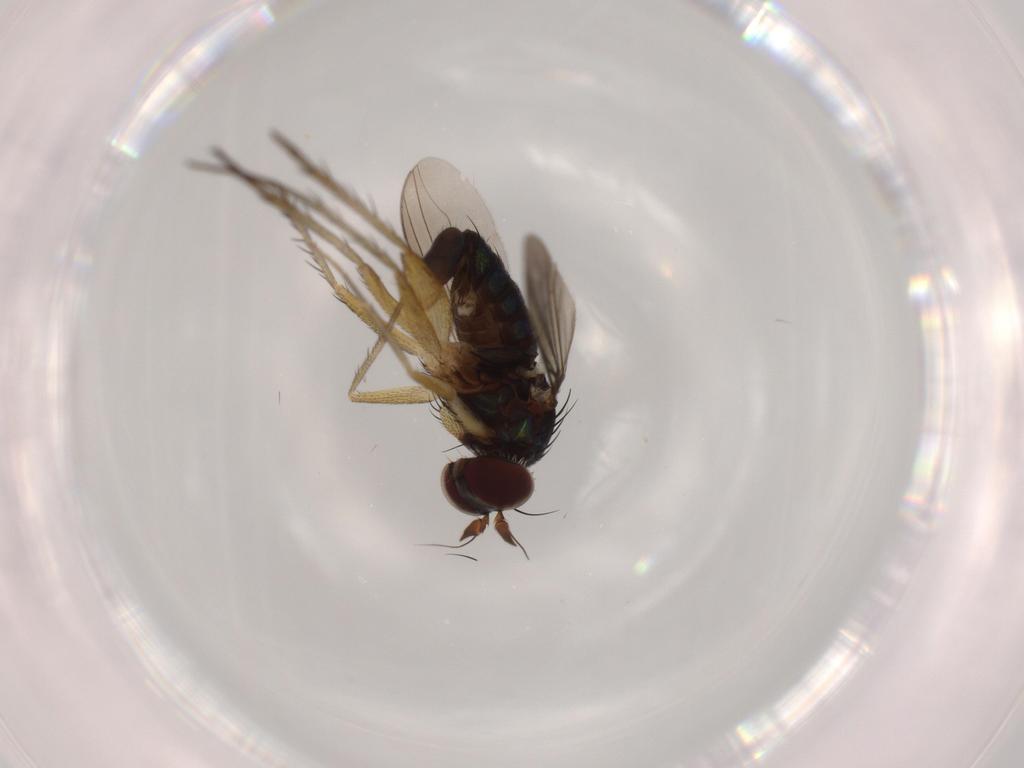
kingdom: Animalia
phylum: Arthropoda
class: Insecta
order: Diptera
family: Dolichopodidae
